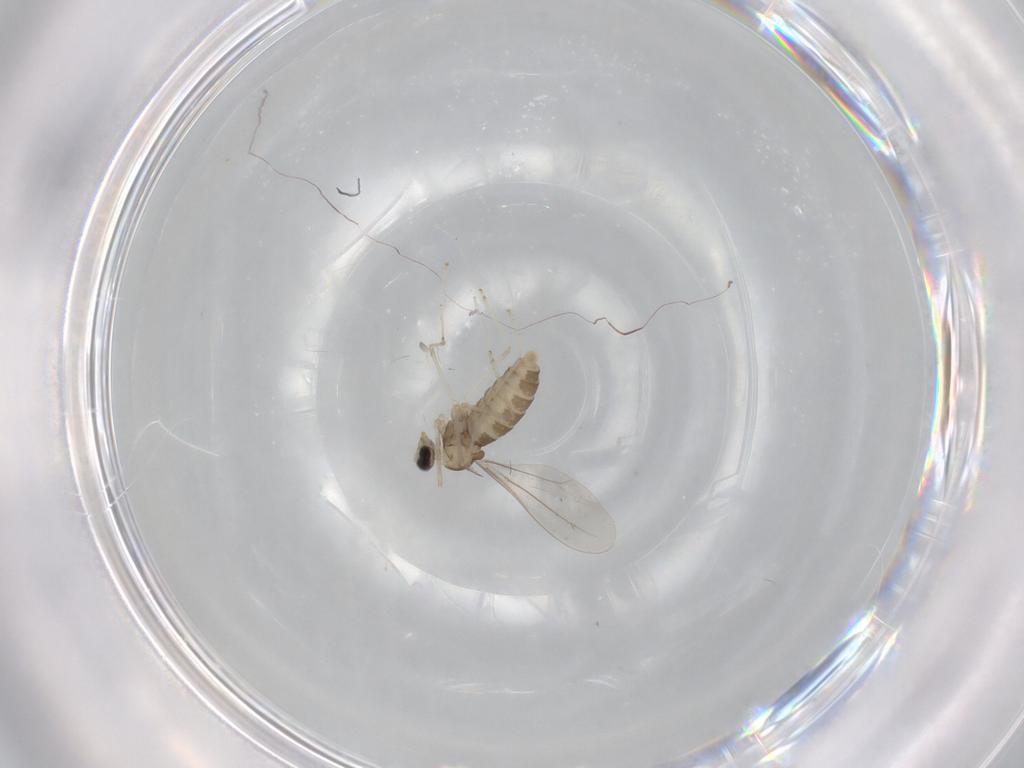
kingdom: Animalia
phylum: Arthropoda
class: Insecta
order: Diptera
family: Cecidomyiidae
